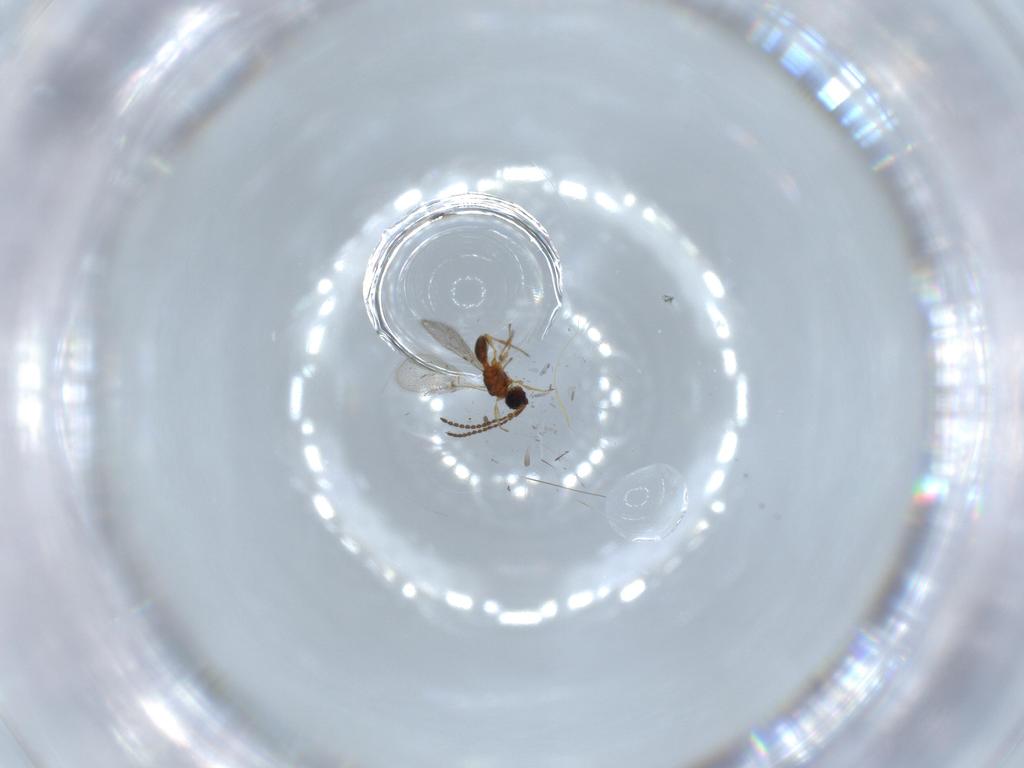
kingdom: Animalia
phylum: Arthropoda
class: Insecta
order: Hymenoptera
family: Diapriidae
